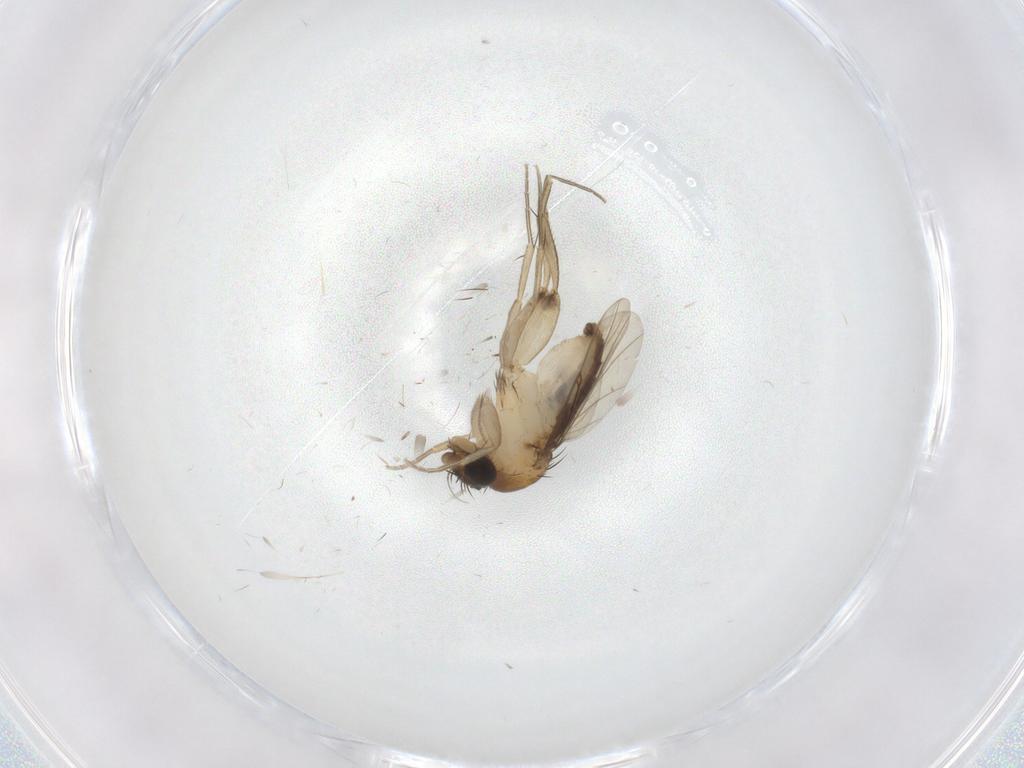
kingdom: Animalia
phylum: Arthropoda
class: Insecta
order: Diptera
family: Phoridae
